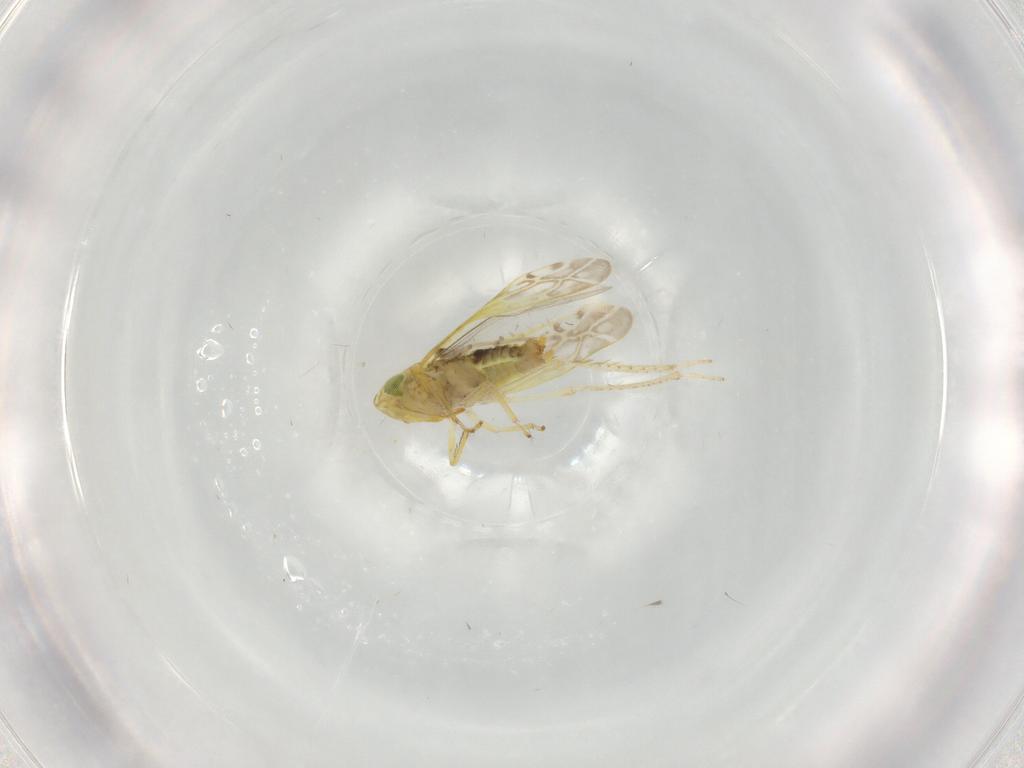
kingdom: Animalia
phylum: Arthropoda
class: Insecta
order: Hemiptera
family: Cicadellidae
